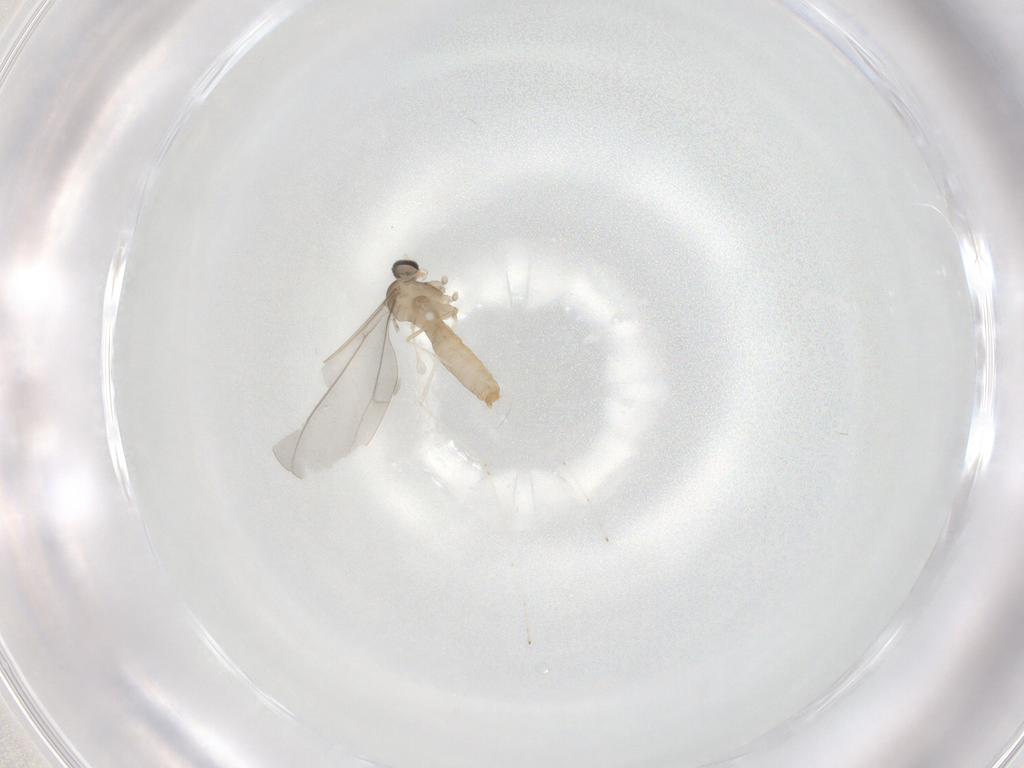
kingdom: Animalia
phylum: Arthropoda
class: Insecta
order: Diptera
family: Cecidomyiidae
